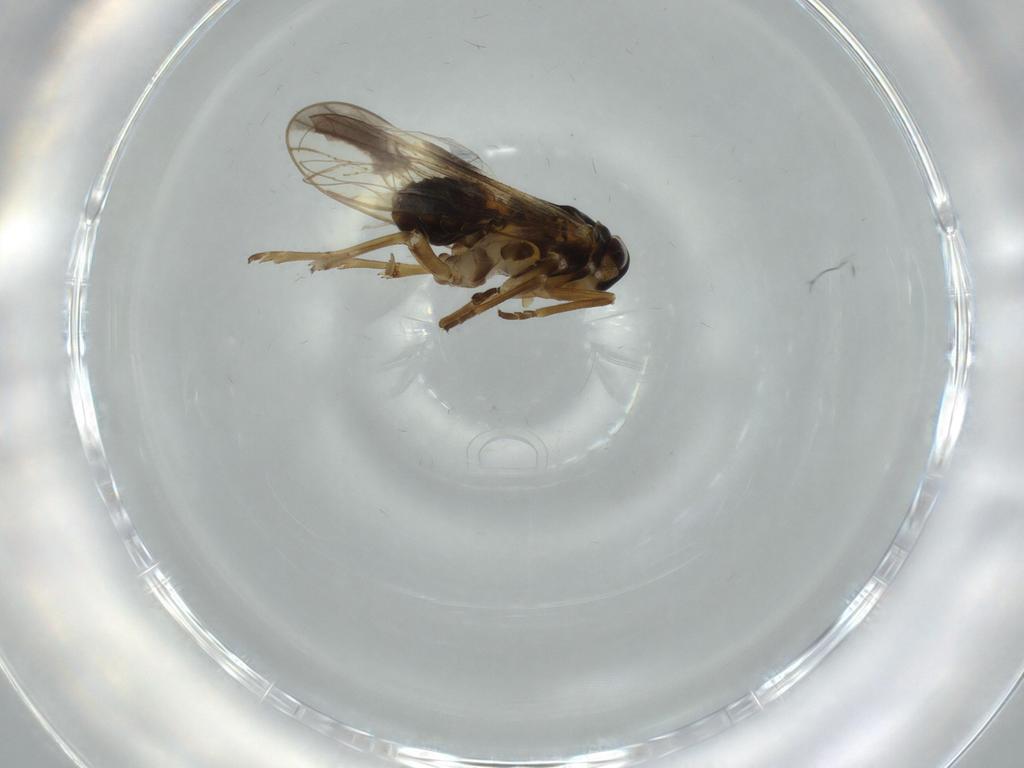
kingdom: Animalia
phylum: Arthropoda
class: Insecta
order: Hemiptera
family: Delphacidae
